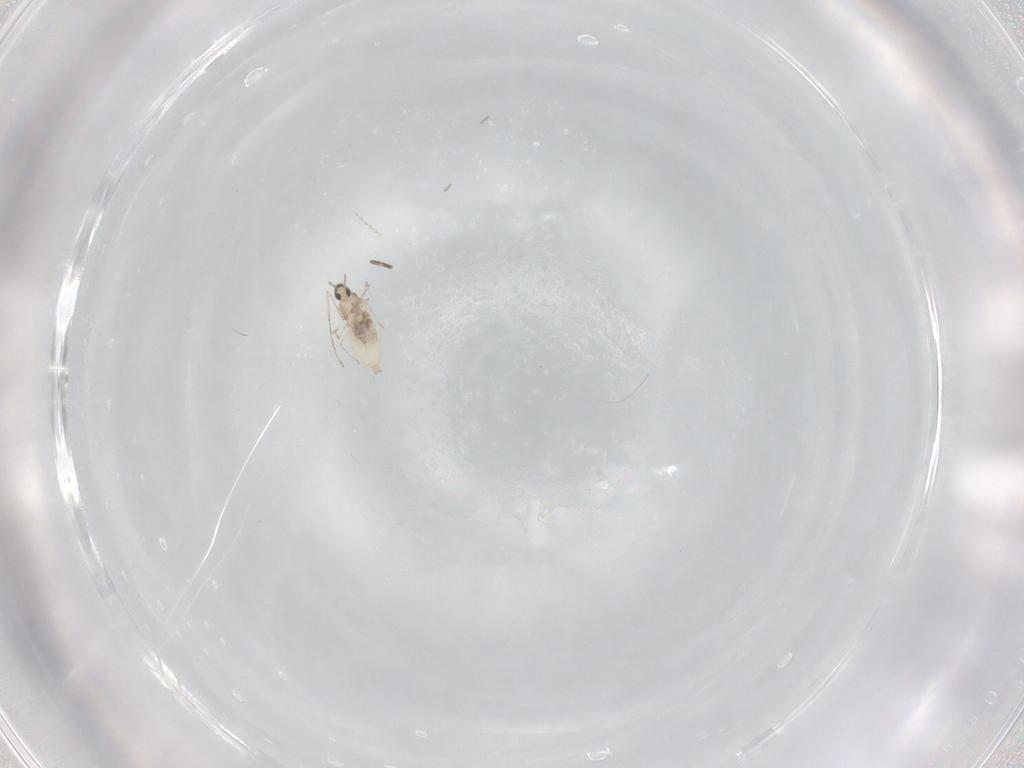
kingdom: Animalia
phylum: Arthropoda
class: Insecta
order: Diptera
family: Cecidomyiidae
